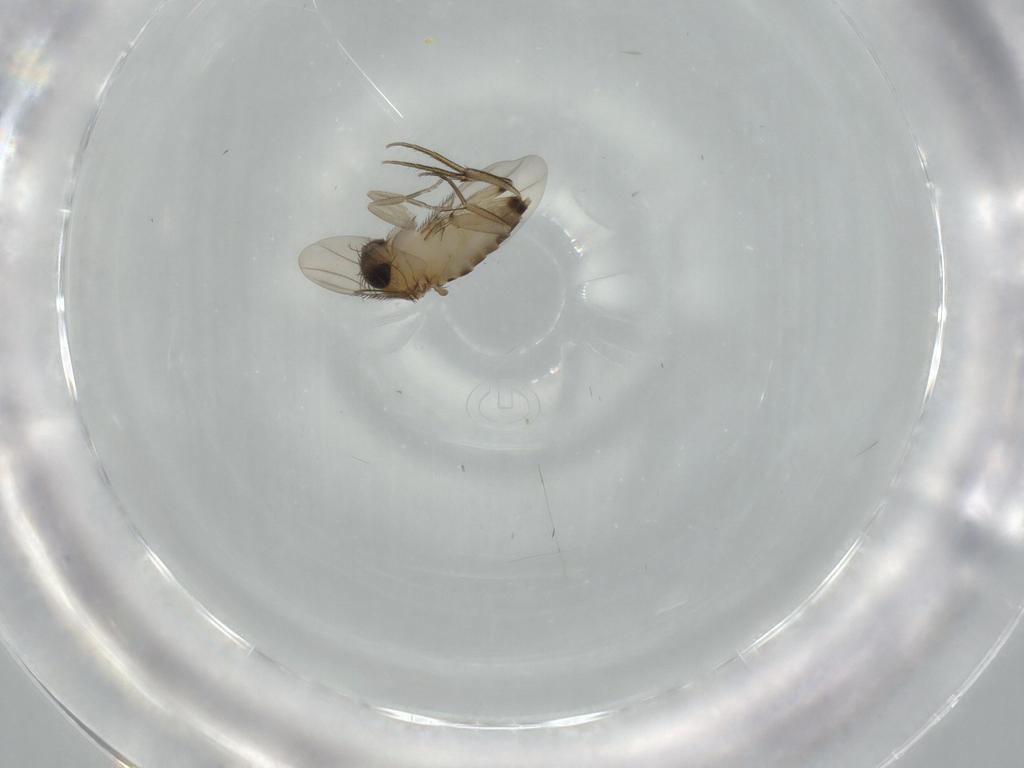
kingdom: Animalia
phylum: Arthropoda
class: Insecta
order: Diptera
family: Phoridae
